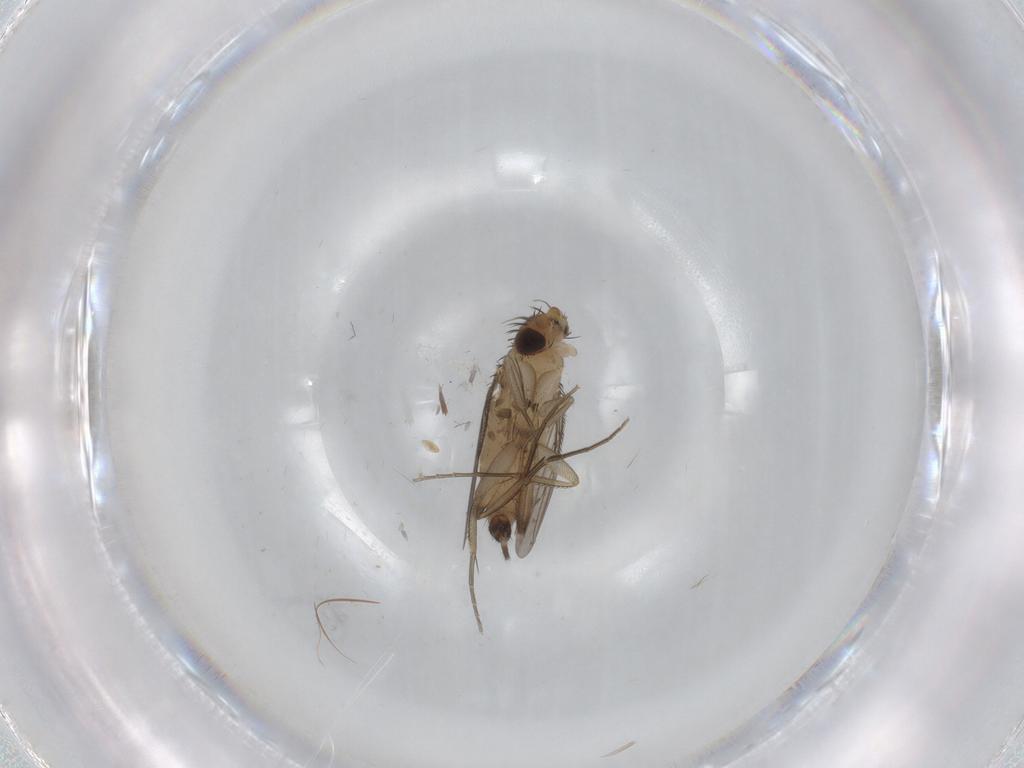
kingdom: Animalia
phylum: Arthropoda
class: Insecta
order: Diptera
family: Phoridae
